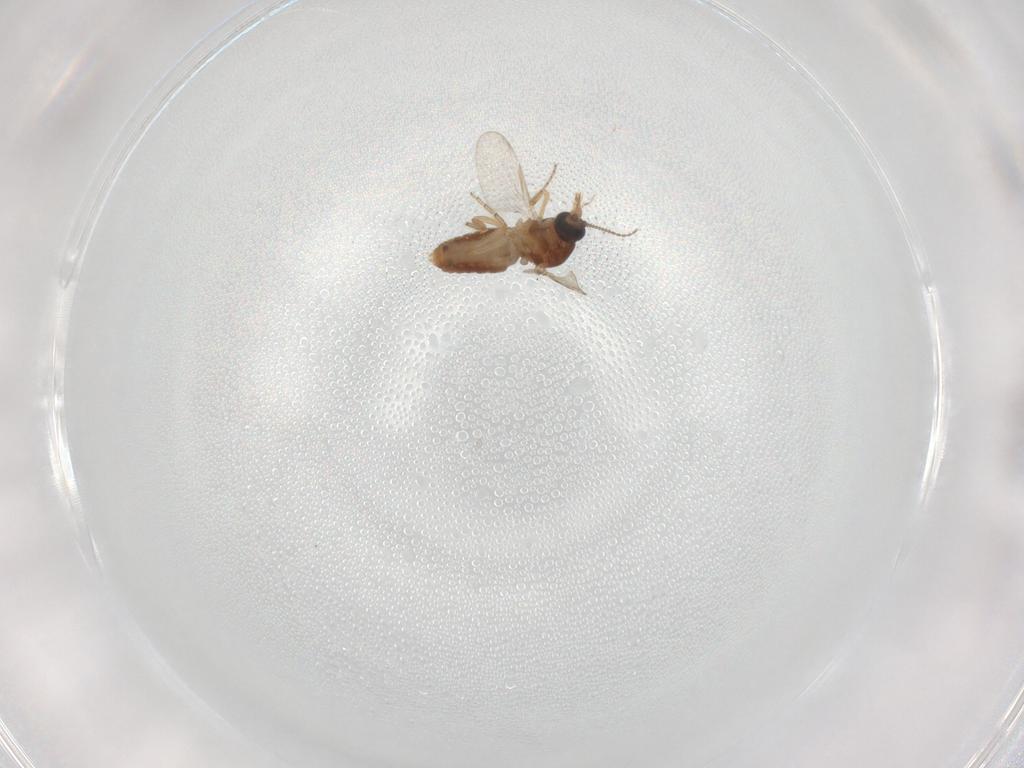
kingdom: Animalia
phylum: Arthropoda
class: Insecta
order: Diptera
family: Ceratopogonidae
